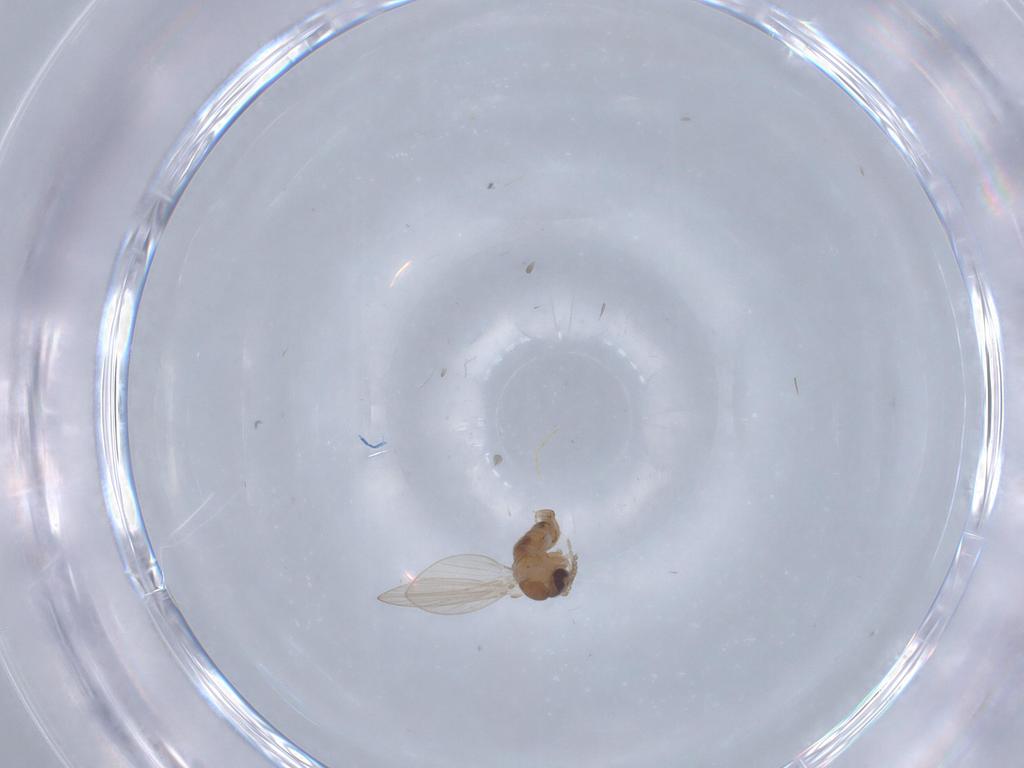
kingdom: Animalia
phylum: Arthropoda
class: Insecta
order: Diptera
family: Psychodidae
